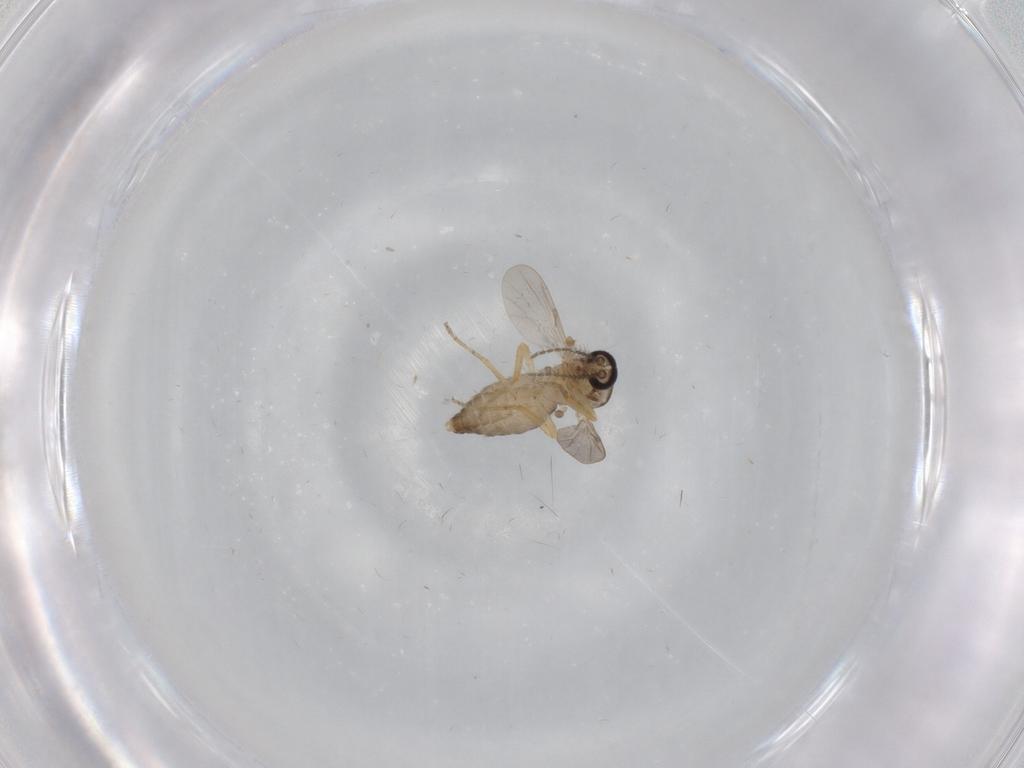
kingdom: Animalia
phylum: Arthropoda
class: Insecta
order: Diptera
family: Ceratopogonidae
